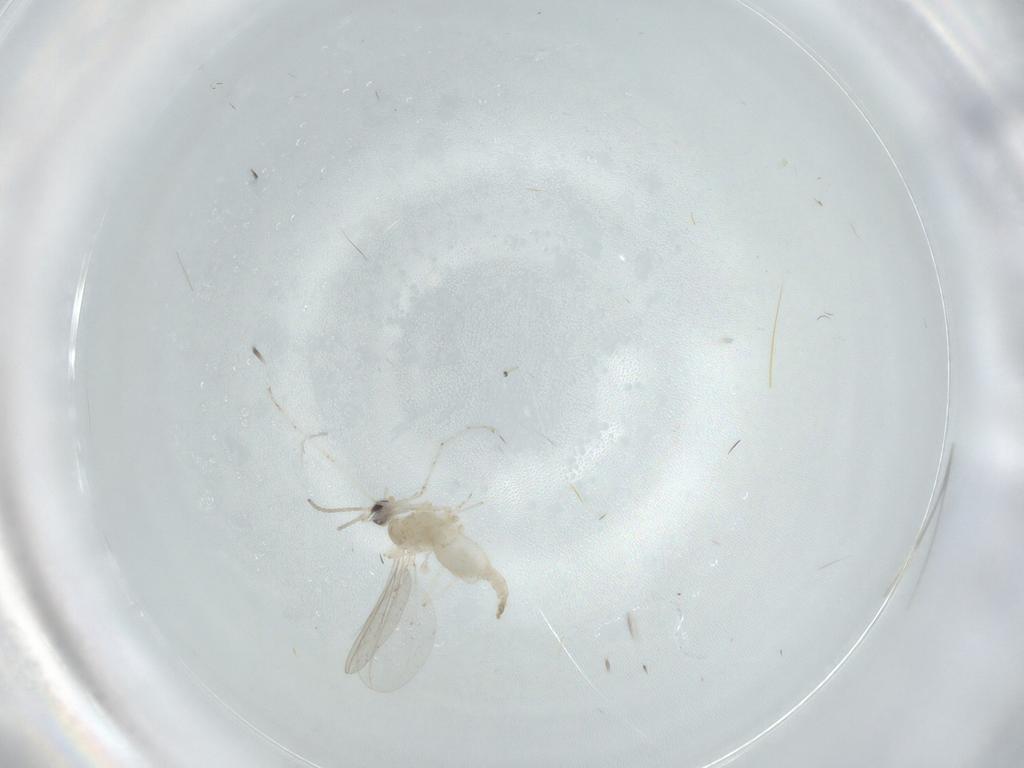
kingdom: Animalia
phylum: Arthropoda
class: Insecta
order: Diptera
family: Cecidomyiidae
